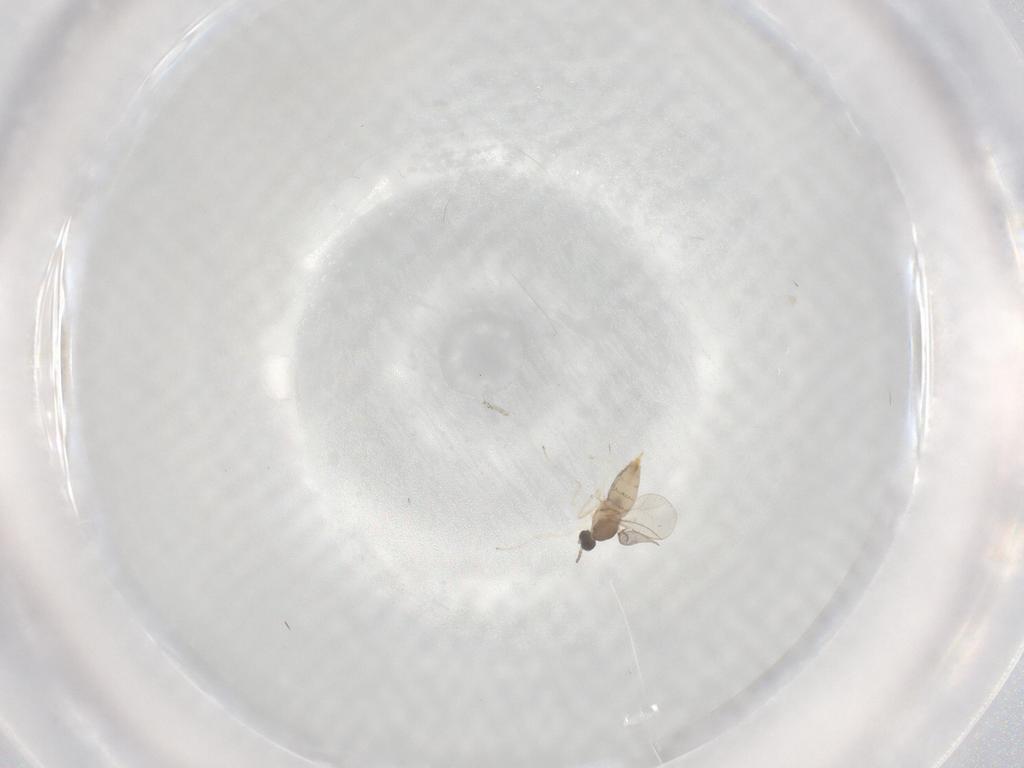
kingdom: Animalia
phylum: Arthropoda
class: Insecta
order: Diptera
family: Cecidomyiidae
